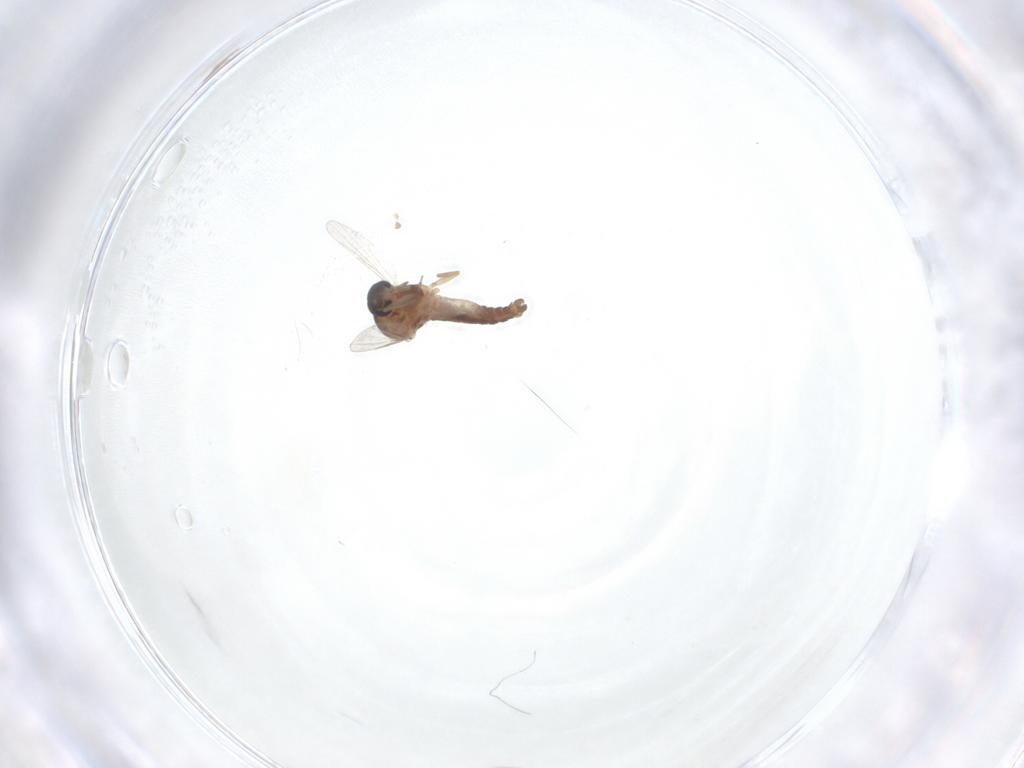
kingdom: Animalia
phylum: Arthropoda
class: Insecta
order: Diptera
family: Ceratopogonidae
